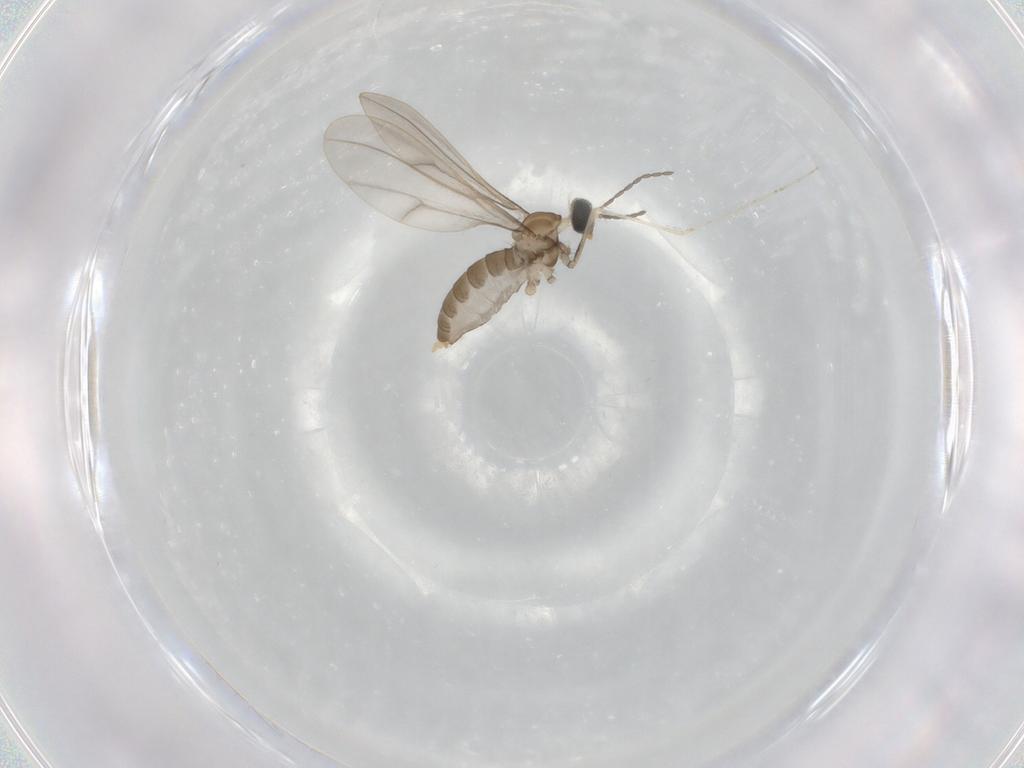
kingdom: Animalia
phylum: Arthropoda
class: Insecta
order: Diptera
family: Cecidomyiidae
